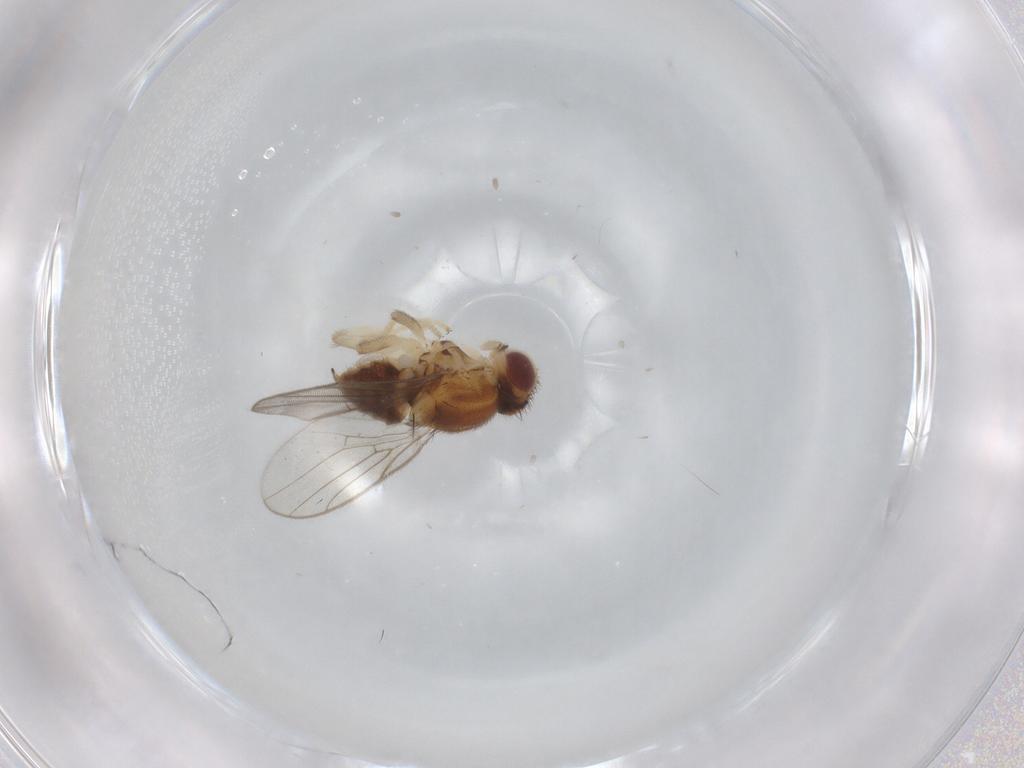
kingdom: Animalia
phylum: Arthropoda
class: Insecta
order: Diptera
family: Chloropidae
